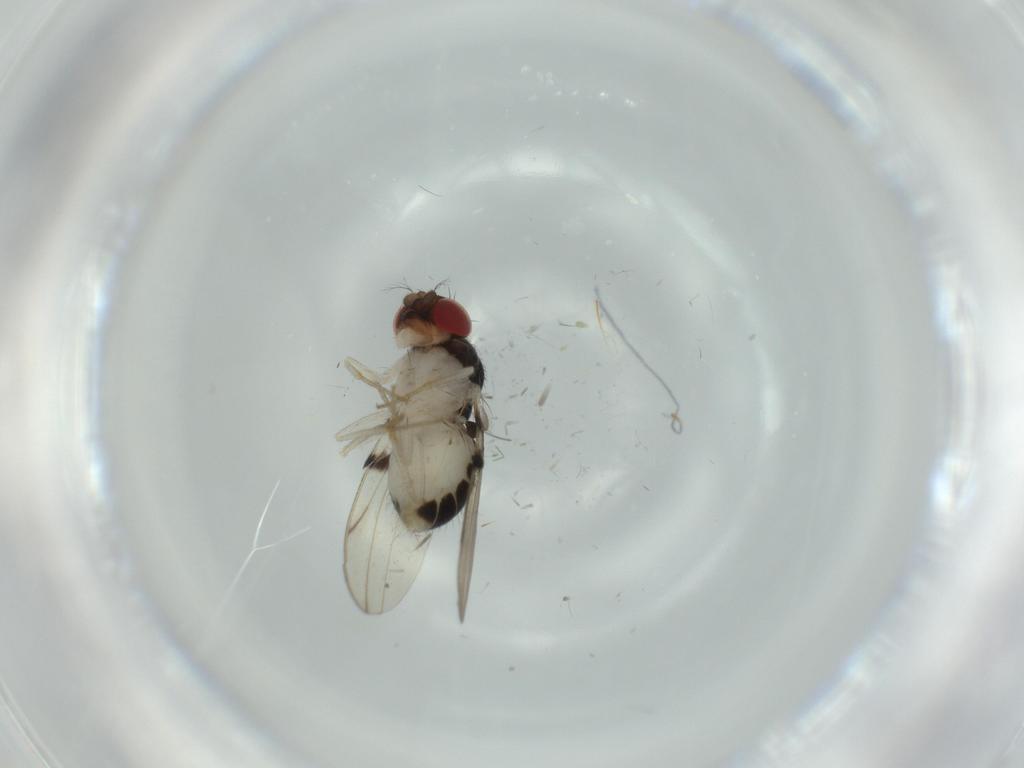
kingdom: Animalia
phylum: Arthropoda
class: Insecta
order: Diptera
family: Drosophilidae
